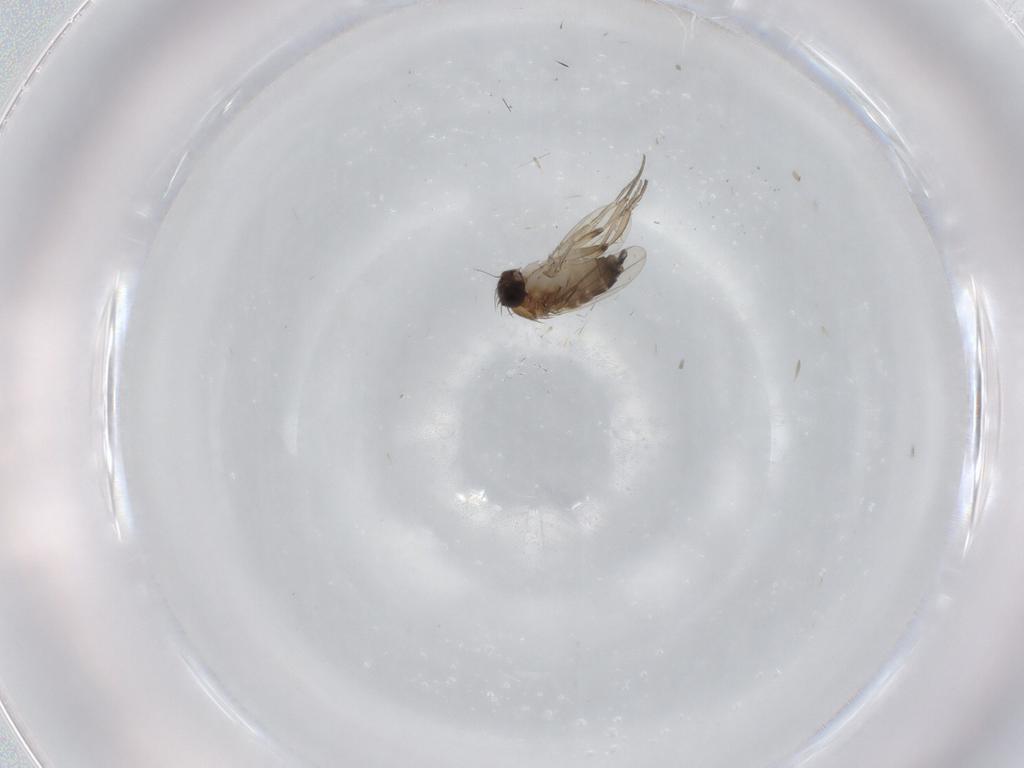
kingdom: Animalia
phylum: Arthropoda
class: Insecta
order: Diptera
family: Phoridae
